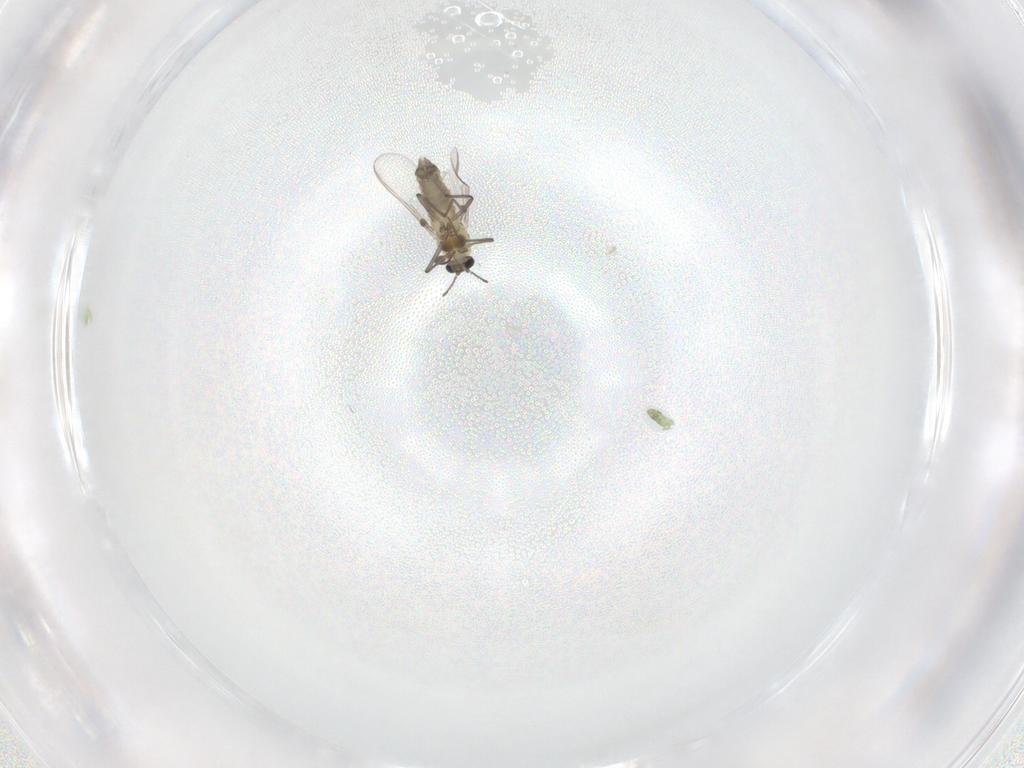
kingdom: Animalia
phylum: Arthropoda
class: Insecta
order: Diptera
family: Chironomidae
